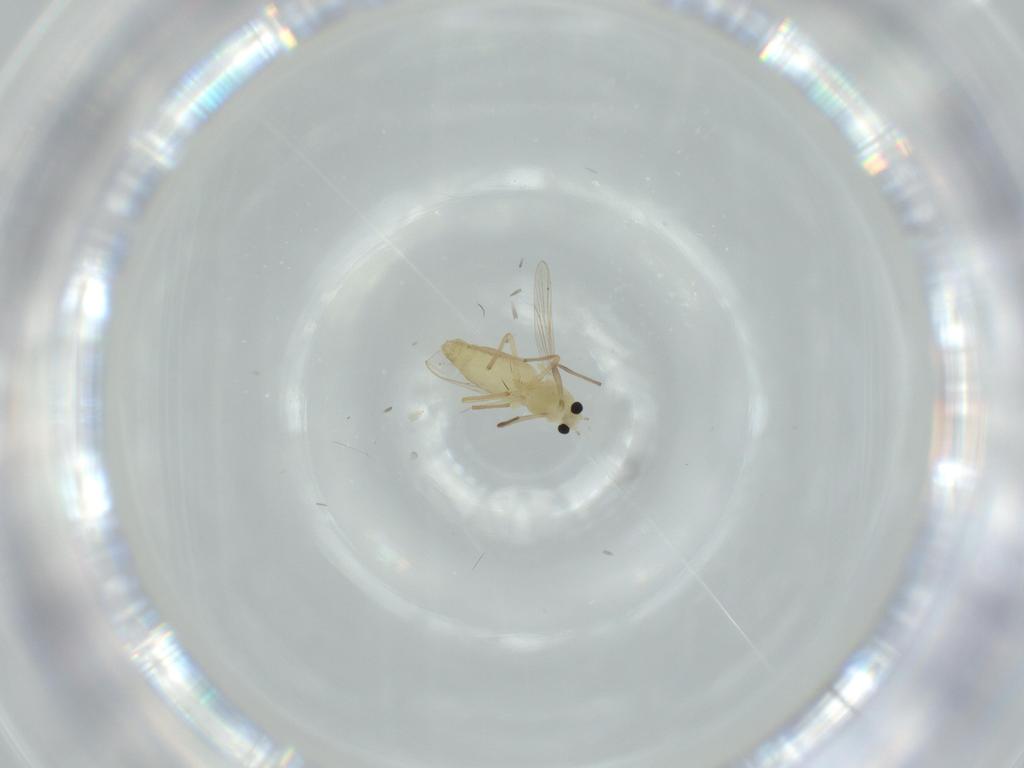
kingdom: Animalia
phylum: Arthropoda
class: Insecta
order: Diptera
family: Chironomidae
